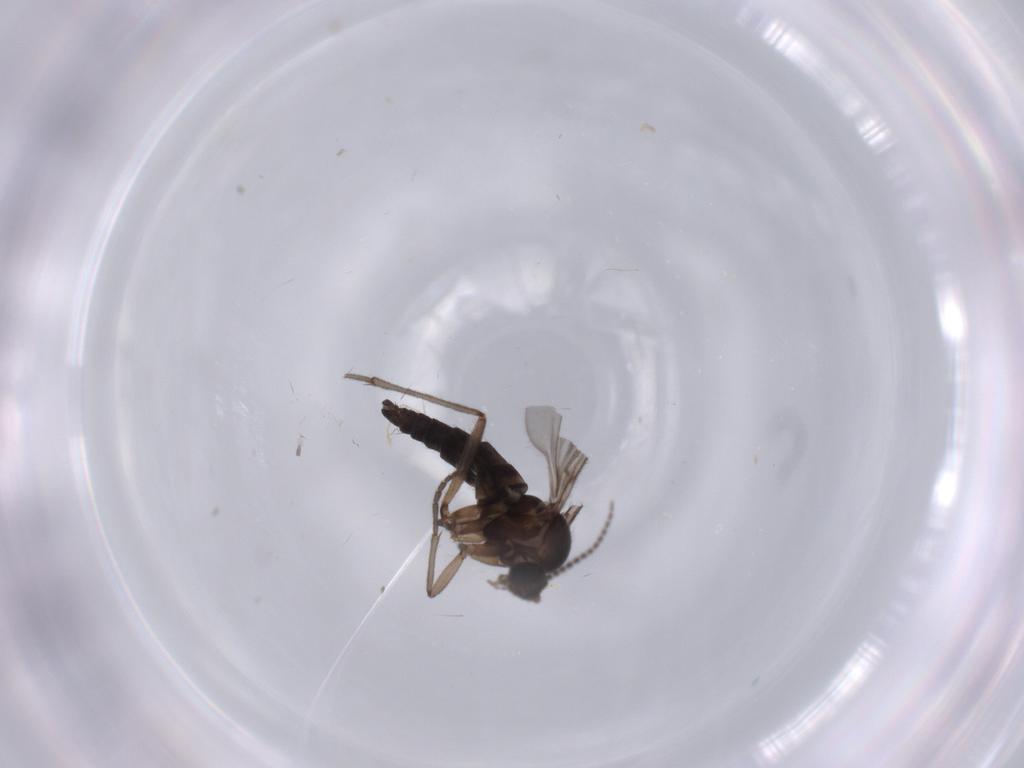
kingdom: Animalia
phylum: Arthropoda
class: Insecta
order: Diptera
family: Sciaridae
